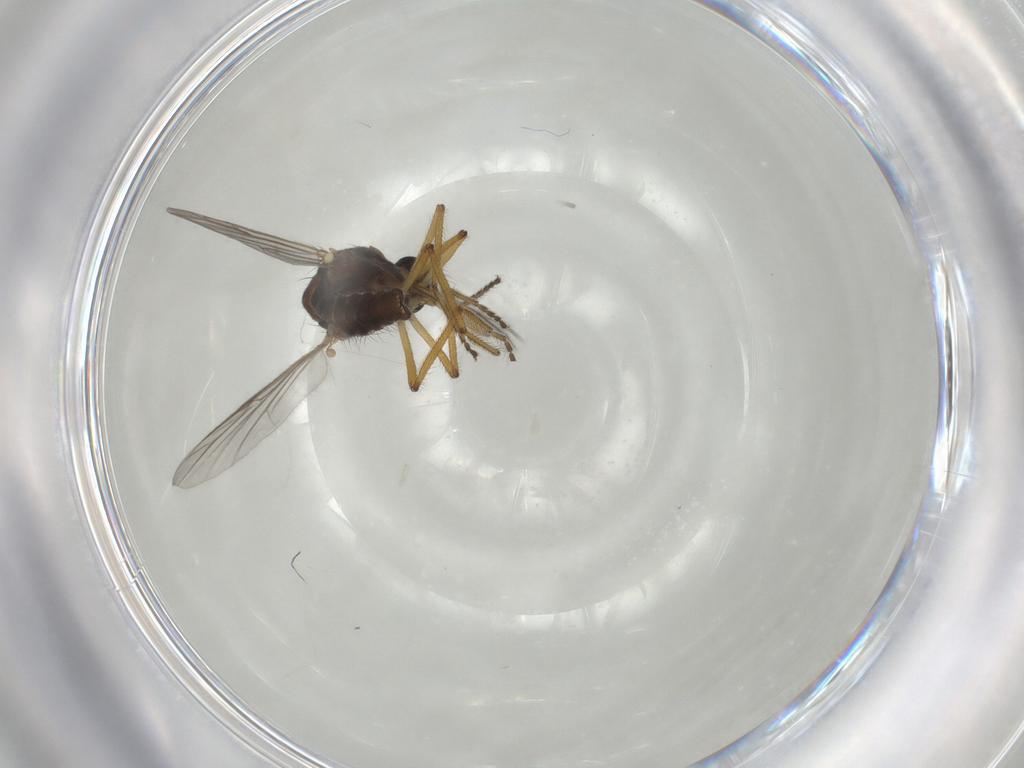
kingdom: Animalia
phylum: Arthropoda
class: Insecta
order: Diptera
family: Ceratopogonidae
